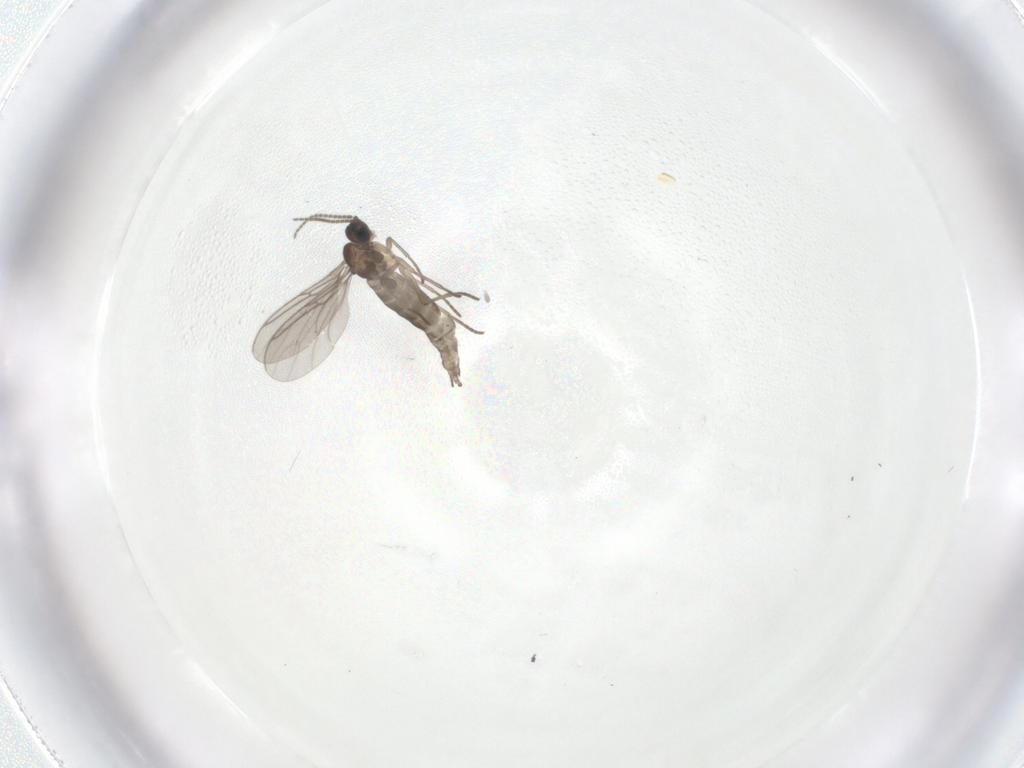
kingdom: Animalia
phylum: Arthropoda
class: Insecta
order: Diptera
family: Sciaridae
